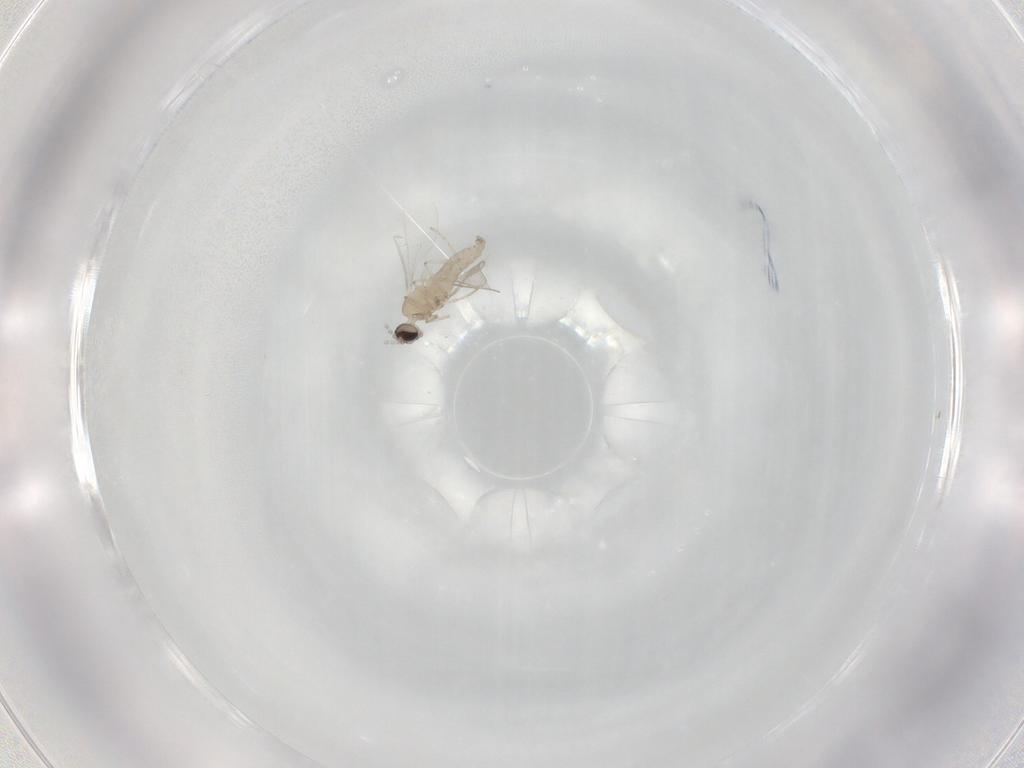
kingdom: Animalia
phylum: Arthropoda
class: Insecta
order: Diptera
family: Cecidomyiidae
